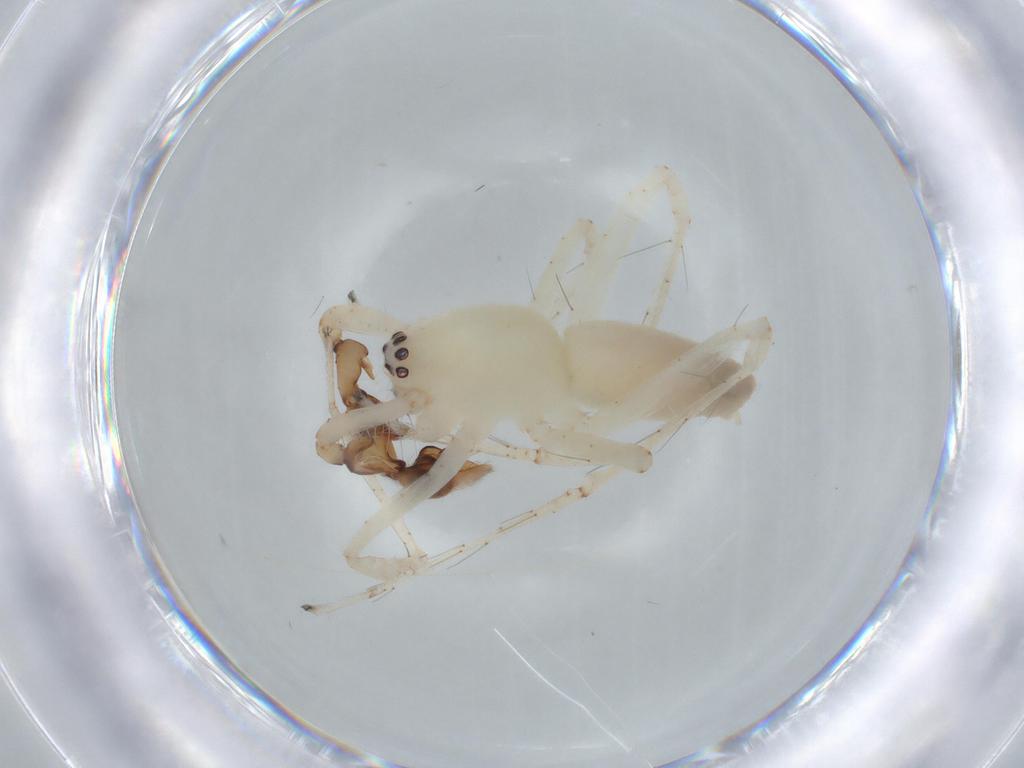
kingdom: Animalia
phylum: Arthropoda
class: Arachnida
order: Araneae
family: Anyphaenidae
